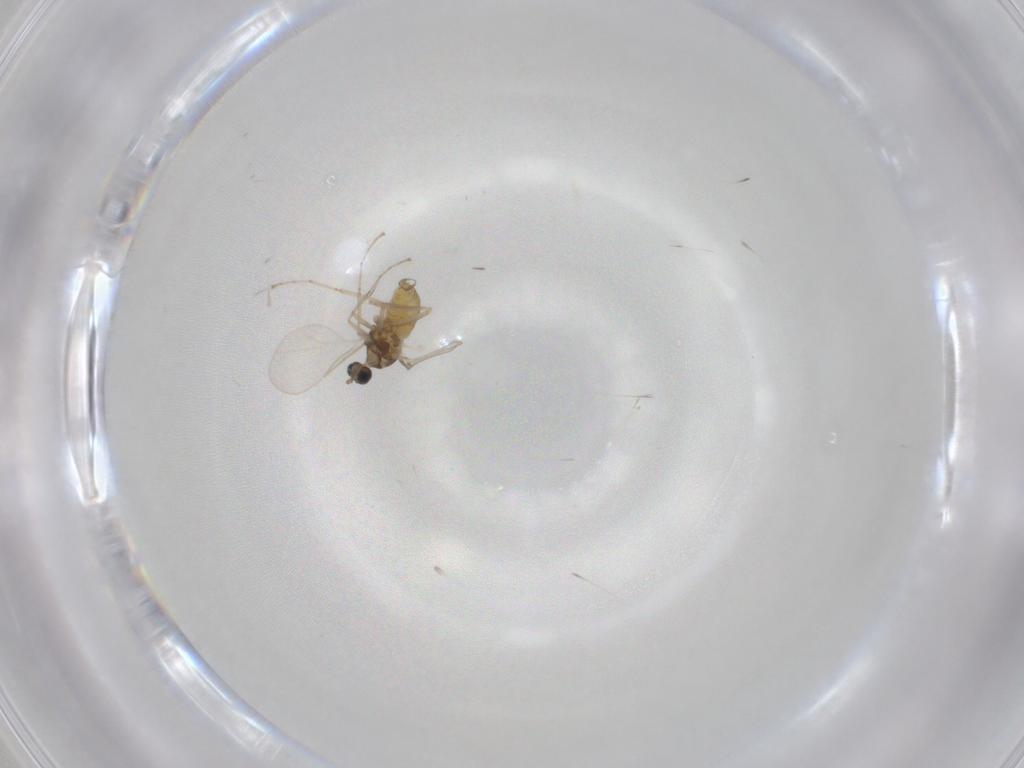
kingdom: Animalia
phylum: Arthropoda
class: Insecta
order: Diptera
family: Cecidomyiidae
